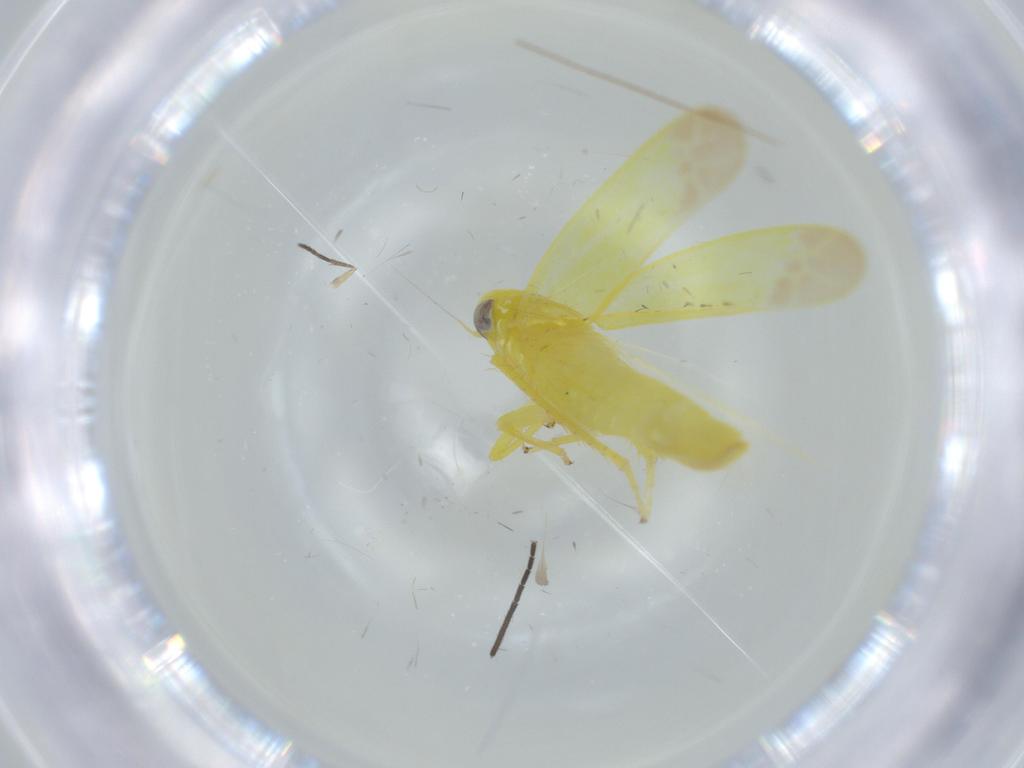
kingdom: Animalia
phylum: Arthropoda
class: Insecta
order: Hemiptera
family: Cicadellidae
